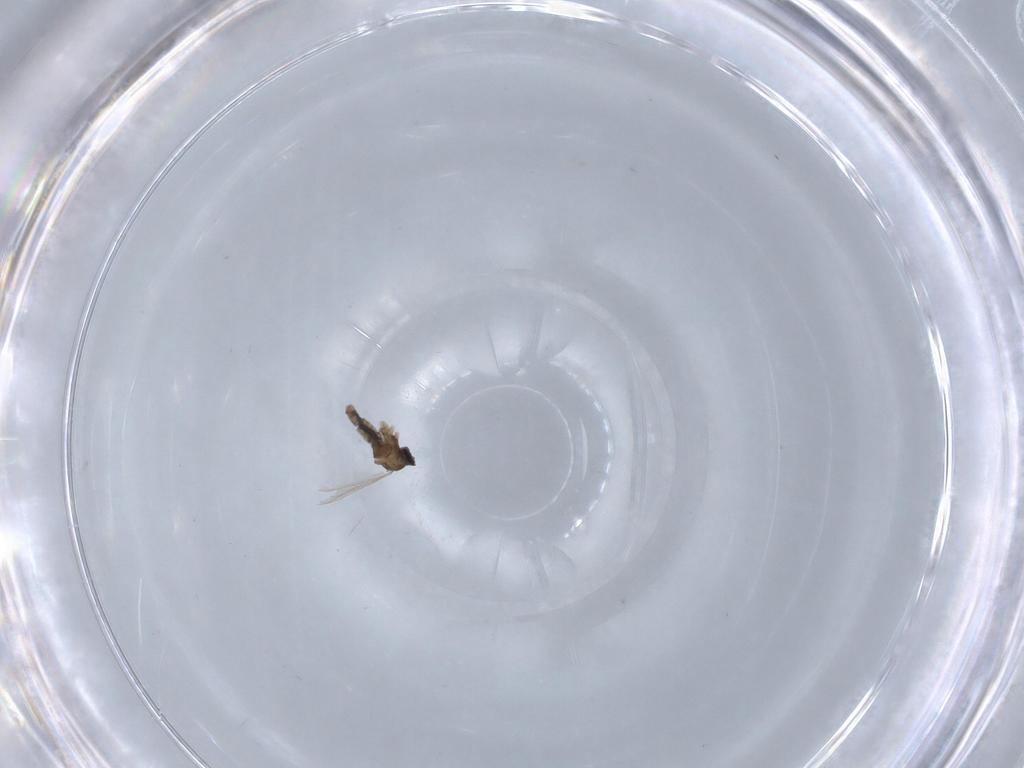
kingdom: Animalia
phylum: Arthropoda
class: Insecta
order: Diptera
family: Cecidomyiidae
